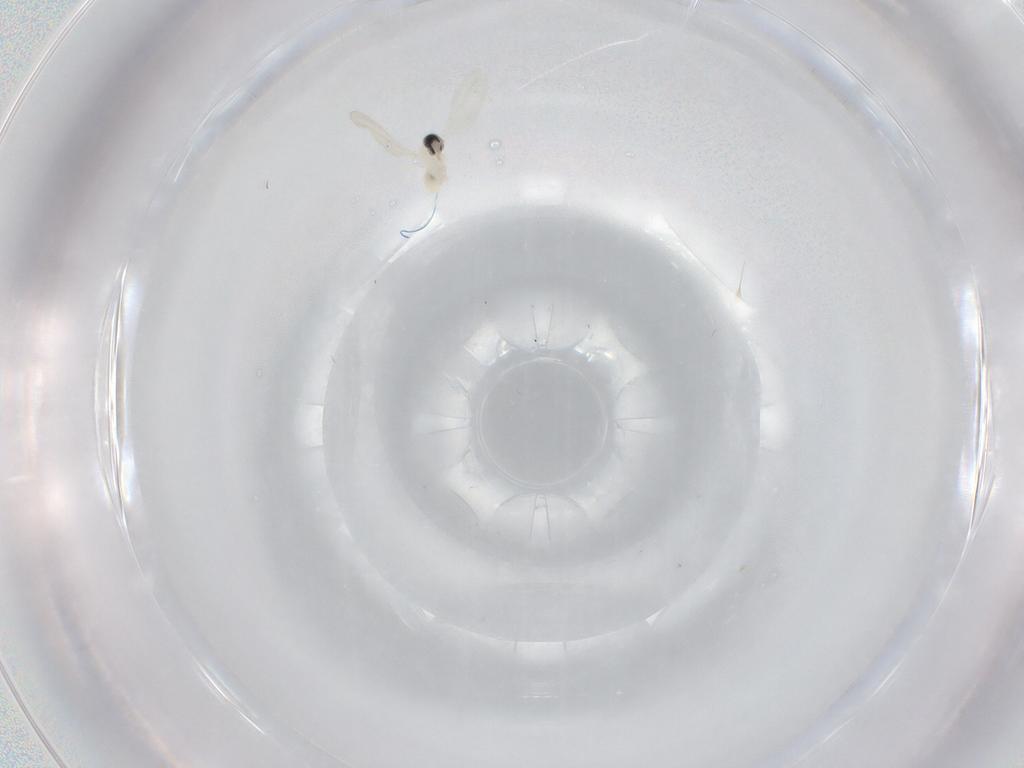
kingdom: Animalia
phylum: Arthropoda
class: Insecta
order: Diptera
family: Cecidomyiidae
